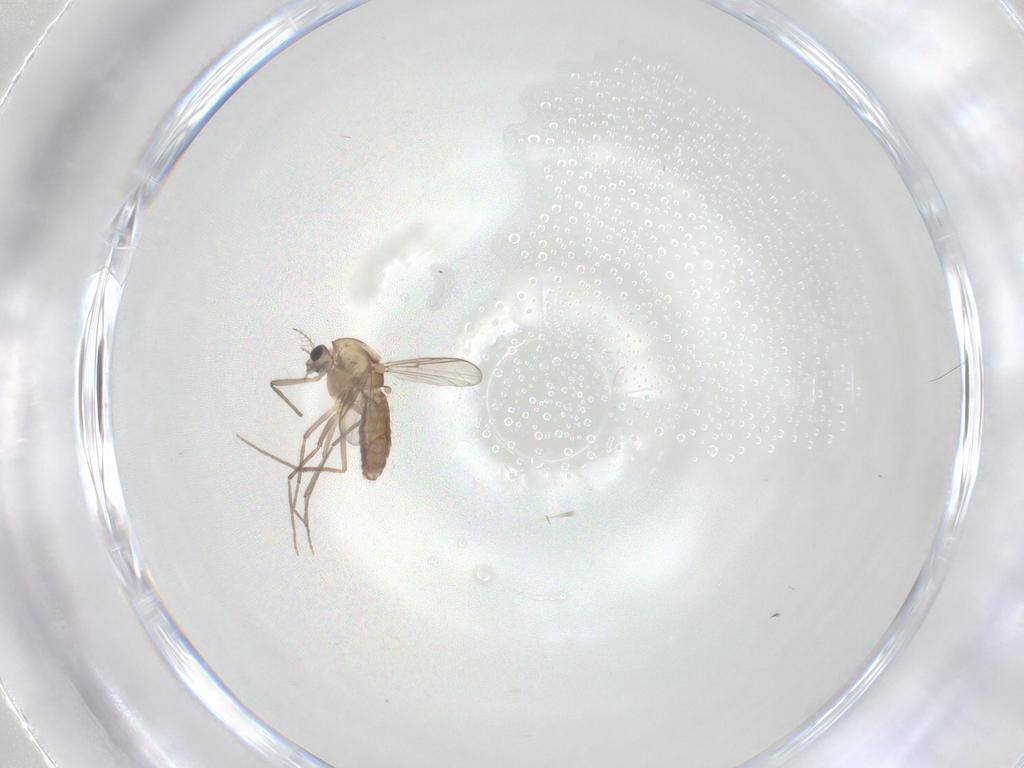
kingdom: Animalia
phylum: Arthropoda
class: Insecta
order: Diptera
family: Chironomidae
